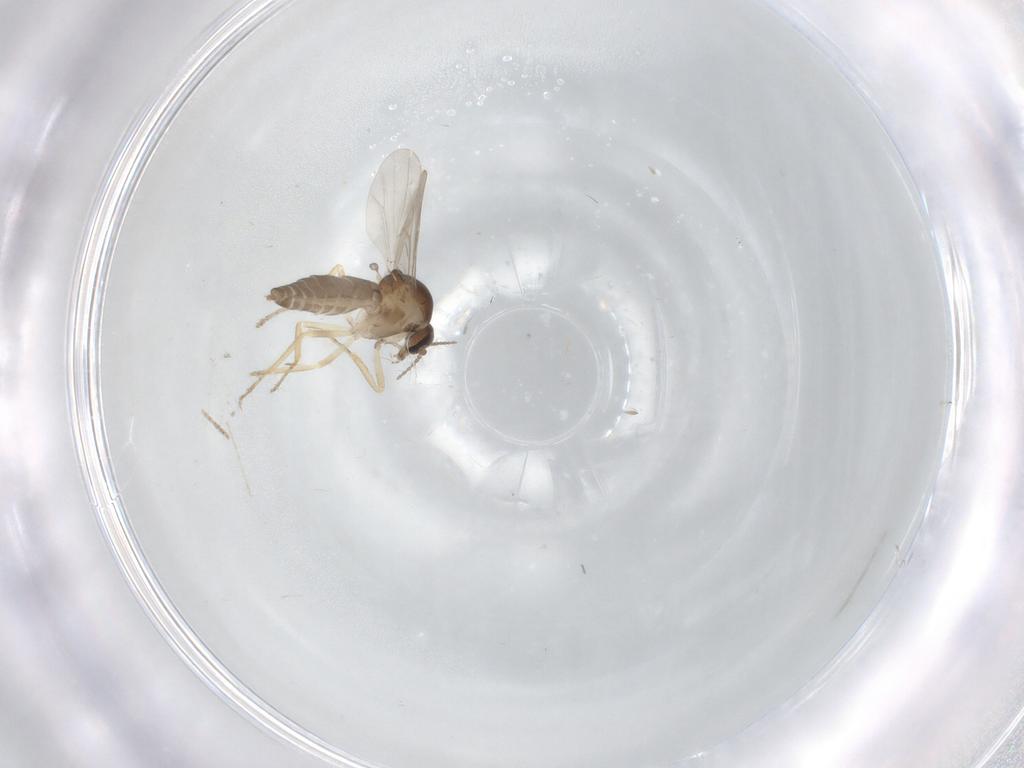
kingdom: Animalia
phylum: Arthropoda
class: Insecta
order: Diptera
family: Ceratopogonidae
